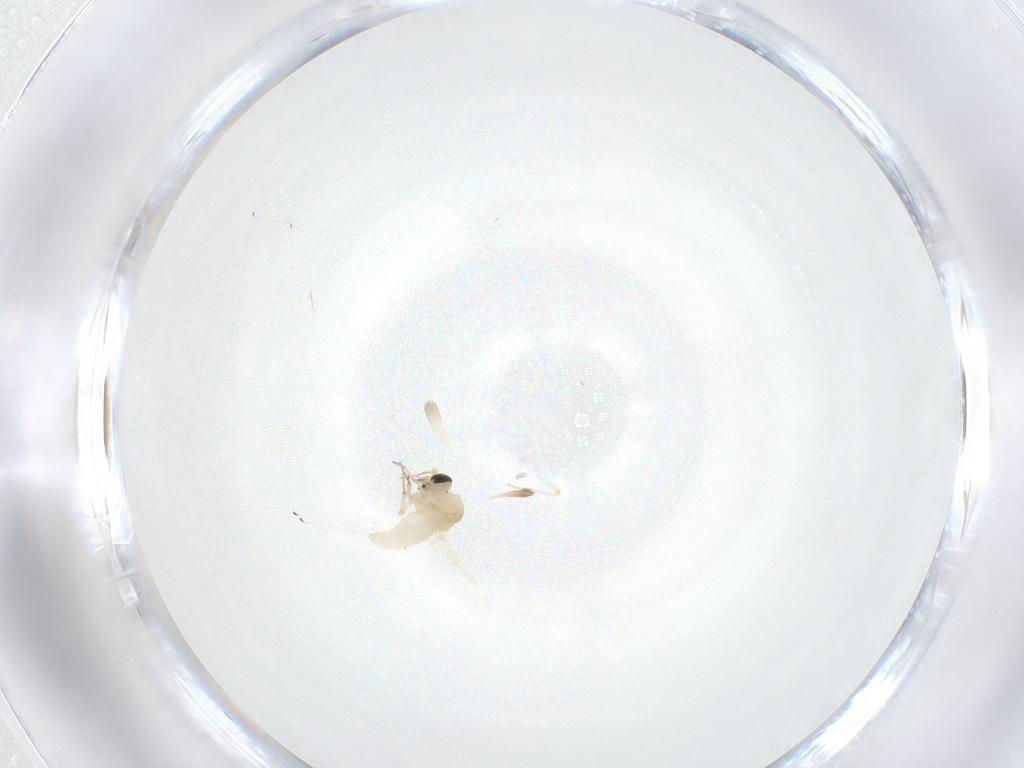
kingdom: Animalia
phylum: Arthropoda
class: Insecta
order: Diptera
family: Ceratopogonidae
